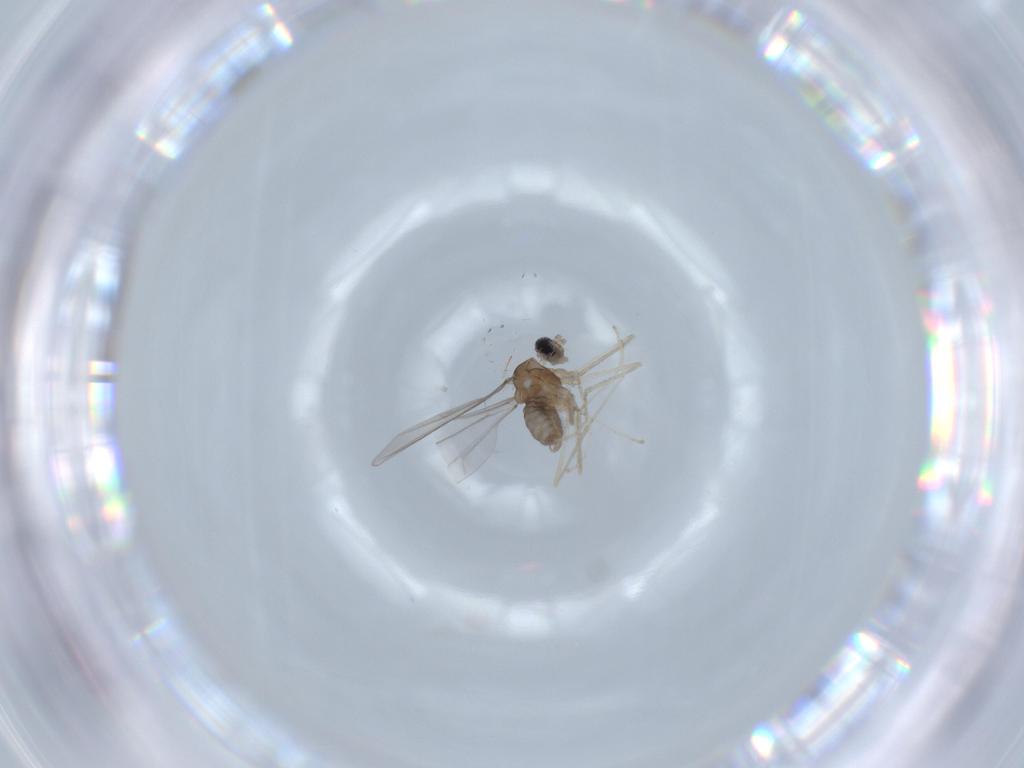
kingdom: Animalia
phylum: Arthropoda
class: Insecta
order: Diptera
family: Cecidomyiidae
